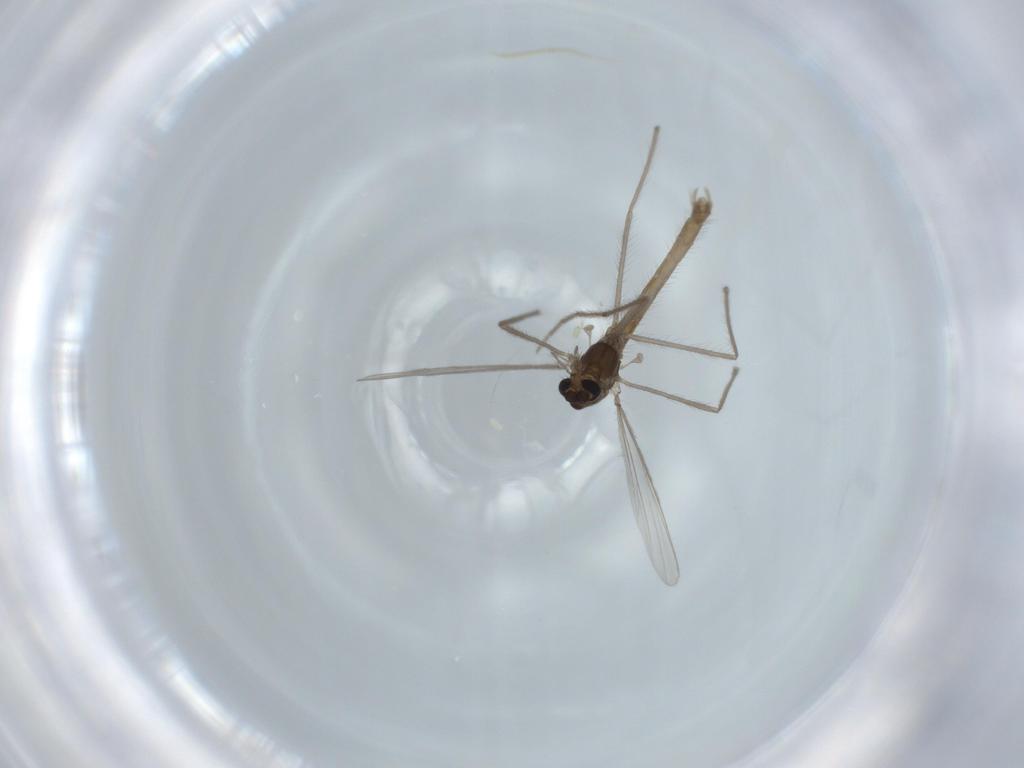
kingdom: Animalia
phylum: Arthropoda
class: Insecta
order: Diptera
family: Chironomidae
